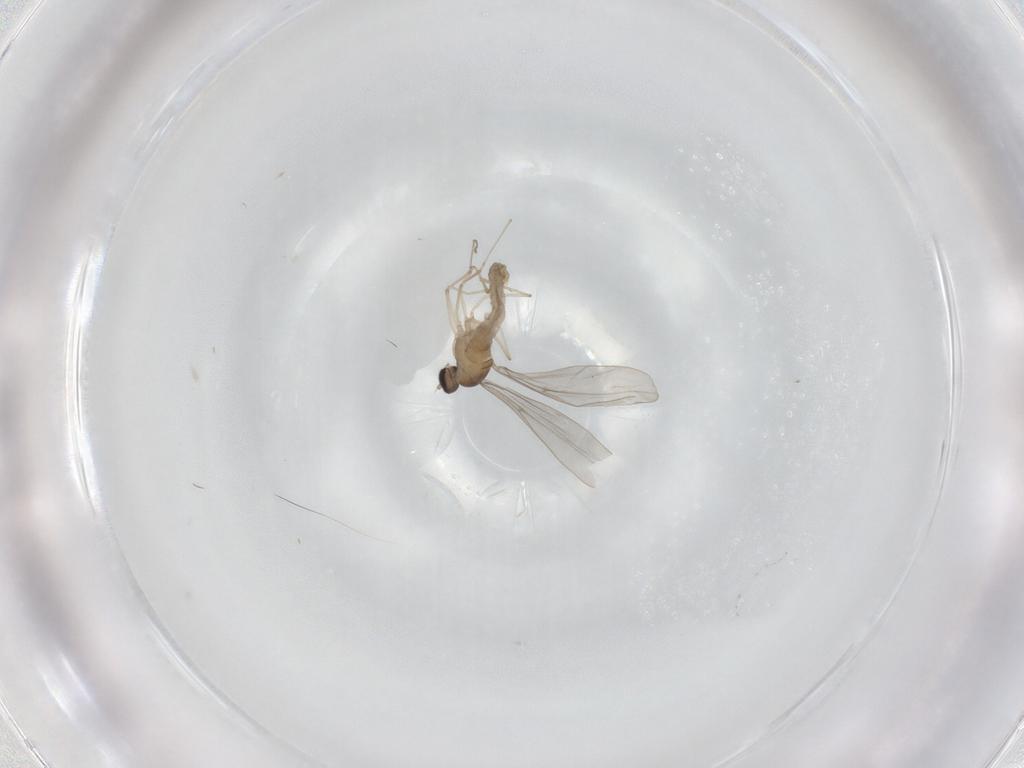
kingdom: Animalia
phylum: Arthropoda
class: Insecta
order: Diptera
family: Cecidomyiidae
